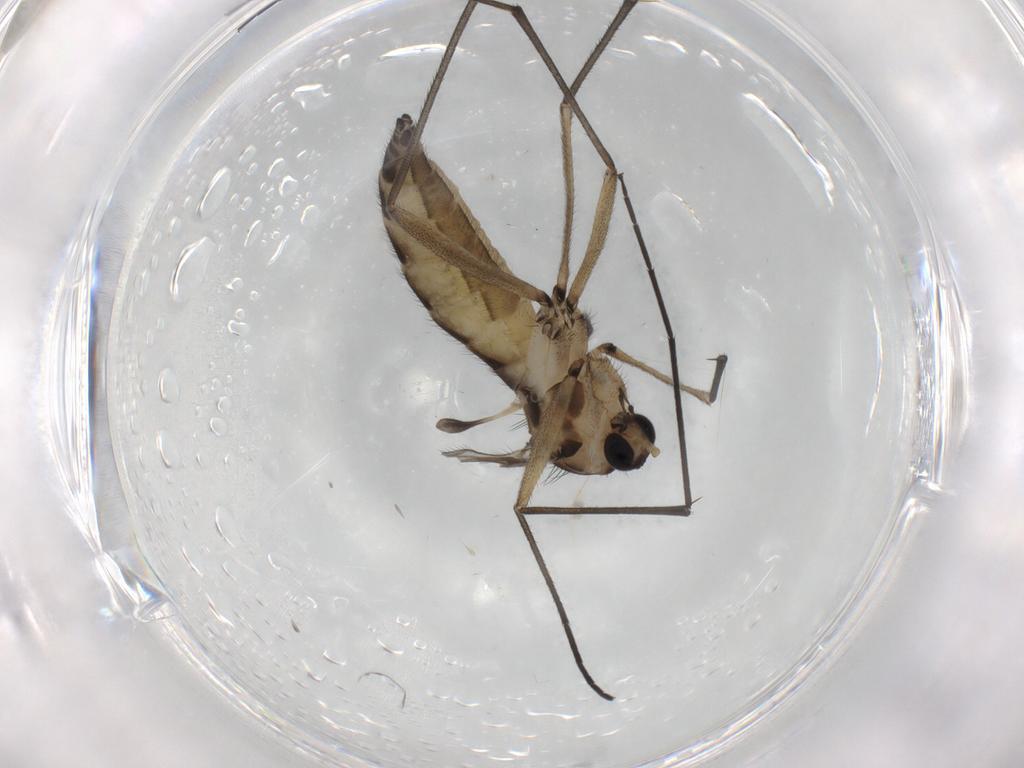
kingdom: Animalia
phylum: Arthropoda
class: Insecta
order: Diptera
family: Sciaridae
